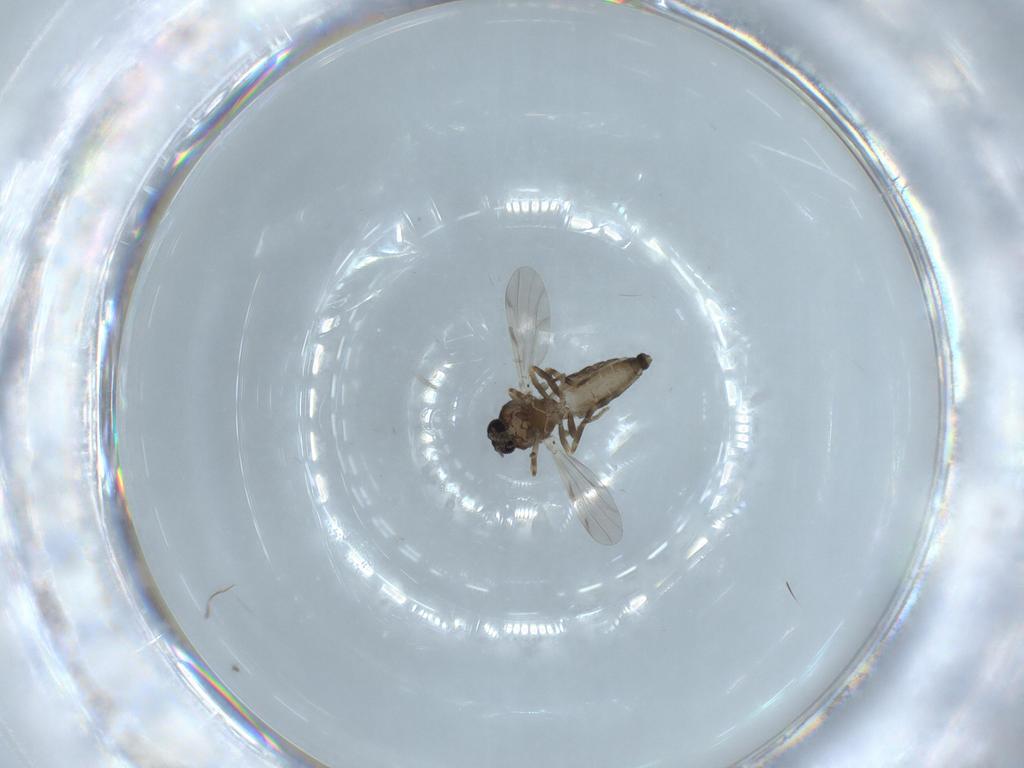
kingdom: Animalia
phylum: Arthropoda
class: Insecta
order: Diptera
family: Ceratopogonidae
